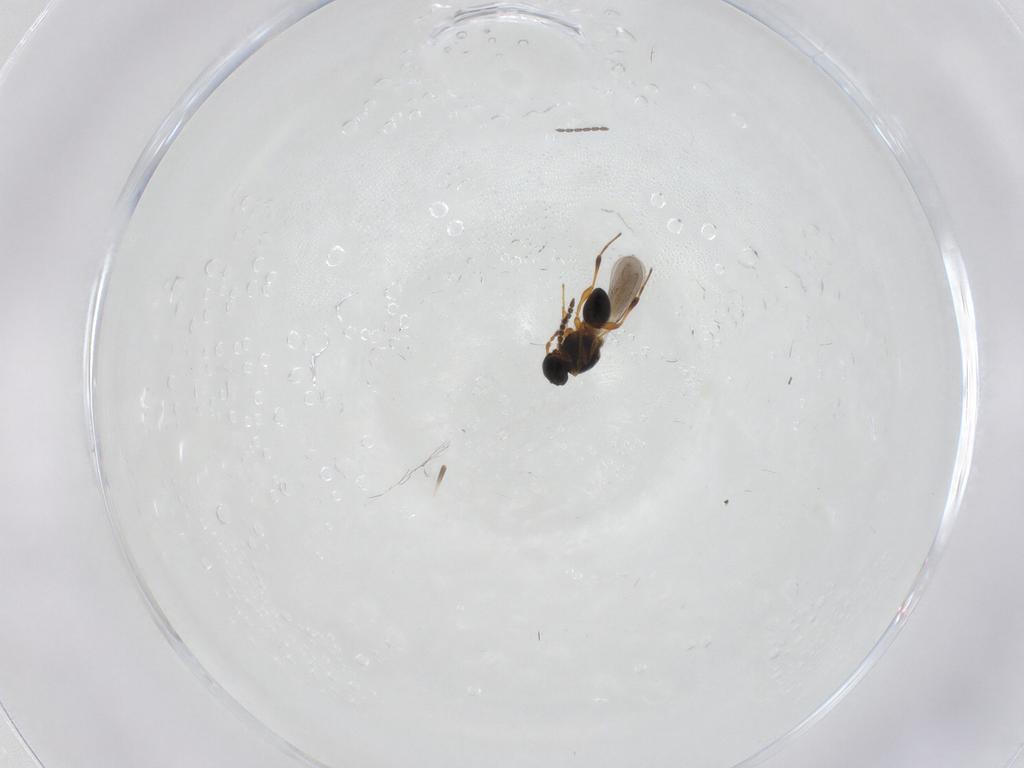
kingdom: Animalia
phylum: Arthropoda
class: Insecta
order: Hymenoptera
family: Platygastridae
